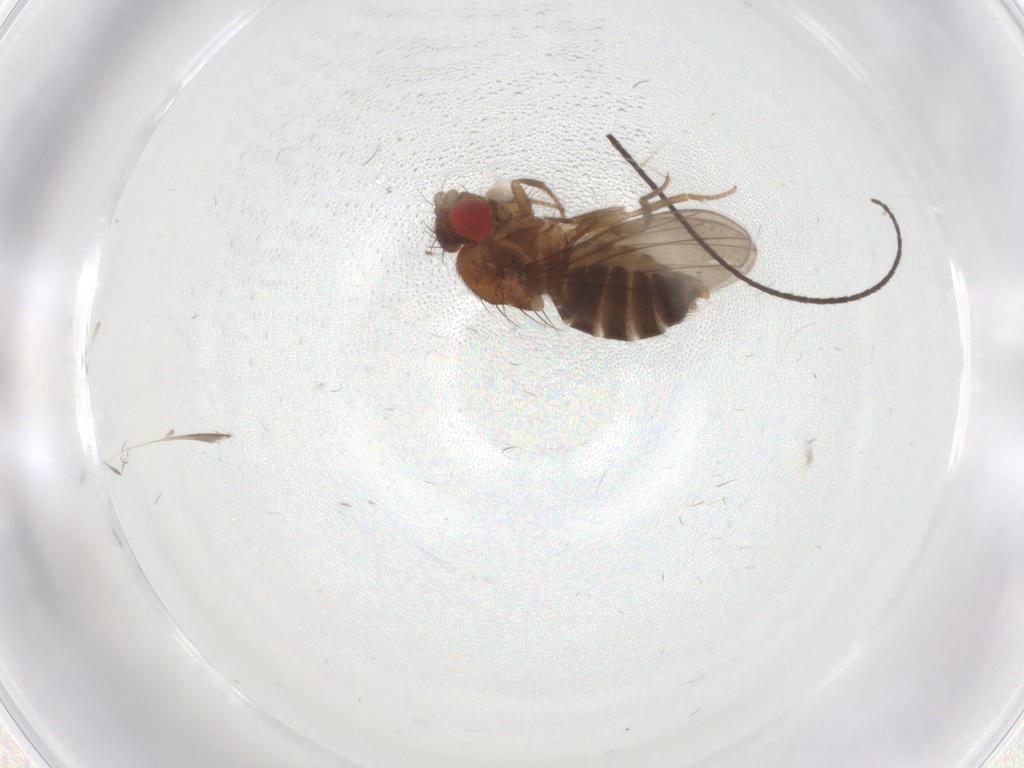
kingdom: Animalia
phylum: Arthropoda
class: Insecta
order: Diptera
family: Drosophilidae
